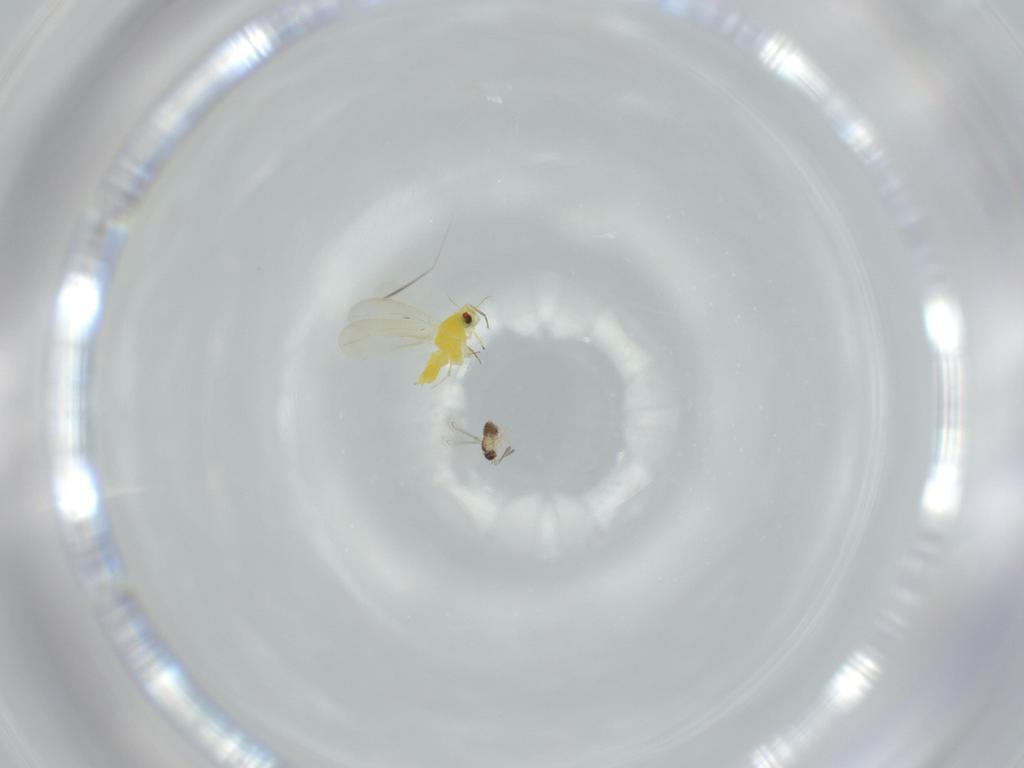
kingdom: Animalia
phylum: Arthropoda
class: Insecta
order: Hemiptera
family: Aleyrodidae
